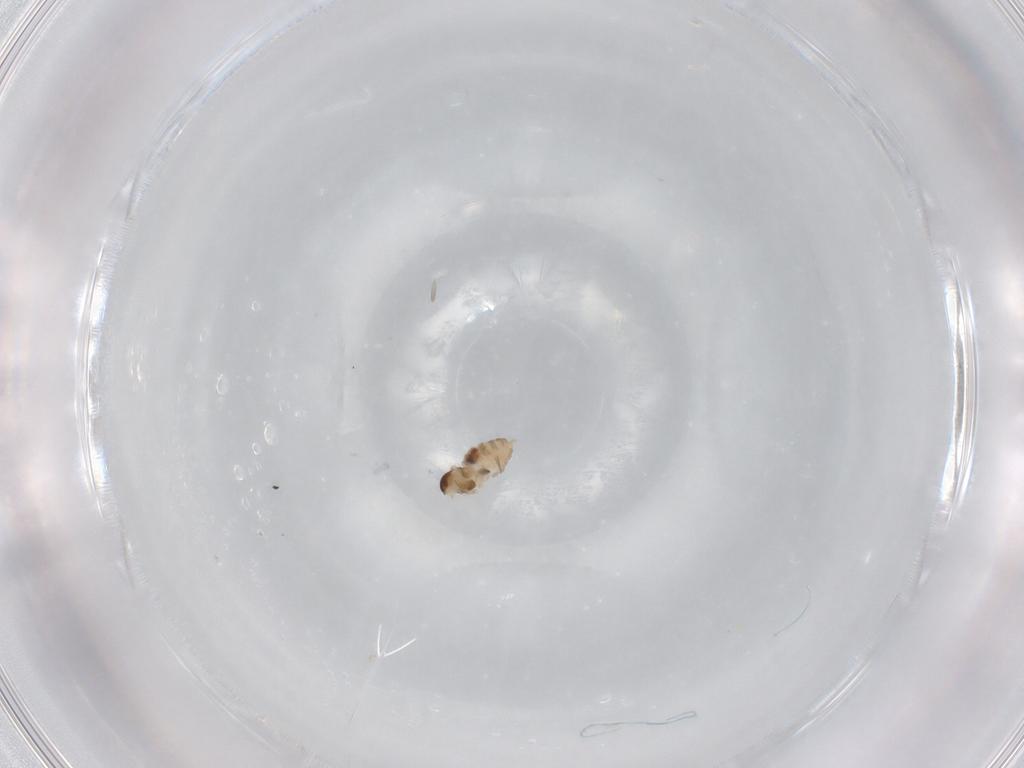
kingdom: Animalia
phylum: Arthropoda
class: Insecta
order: Diptera
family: Cecidomyiidae
